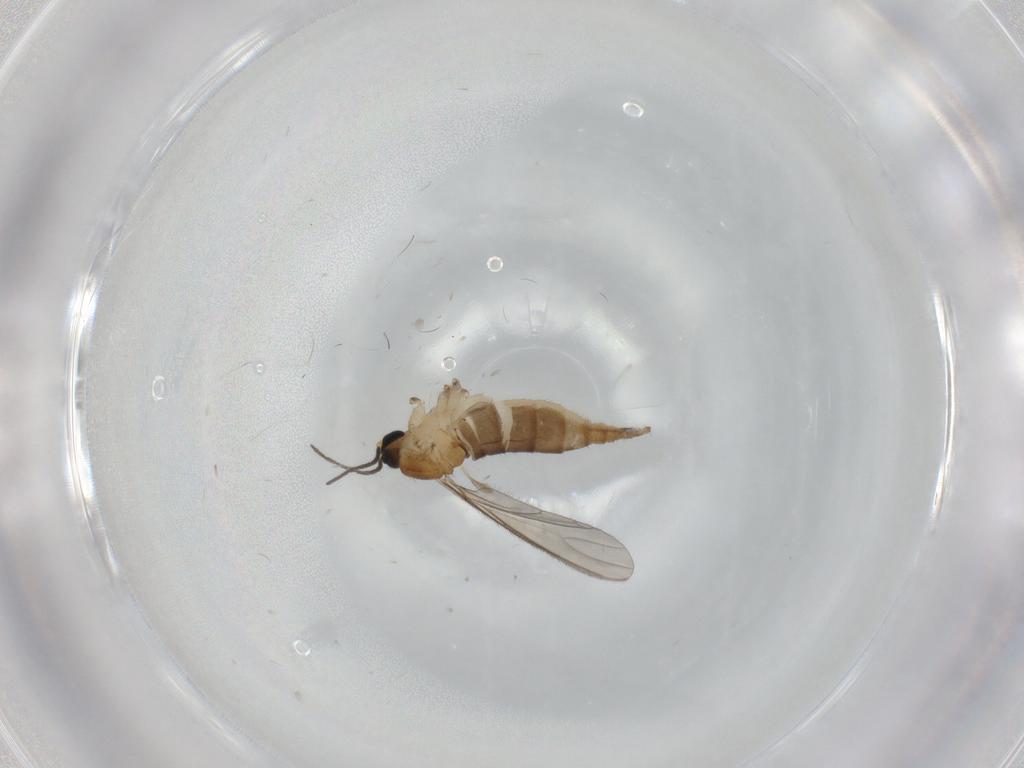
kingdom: Animalia
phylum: Arthropoda
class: Insecta
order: Diptera
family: Sciaridae
